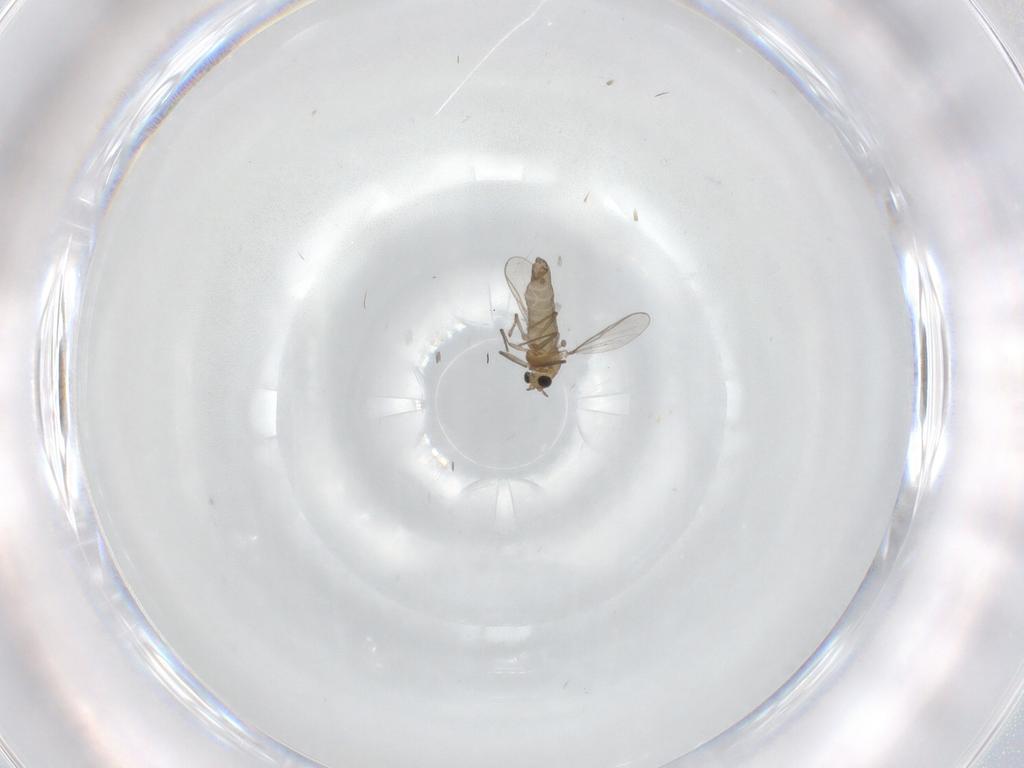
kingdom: Animalia
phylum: Arthropoda
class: Insecta
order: Diptera
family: Chironomidae
